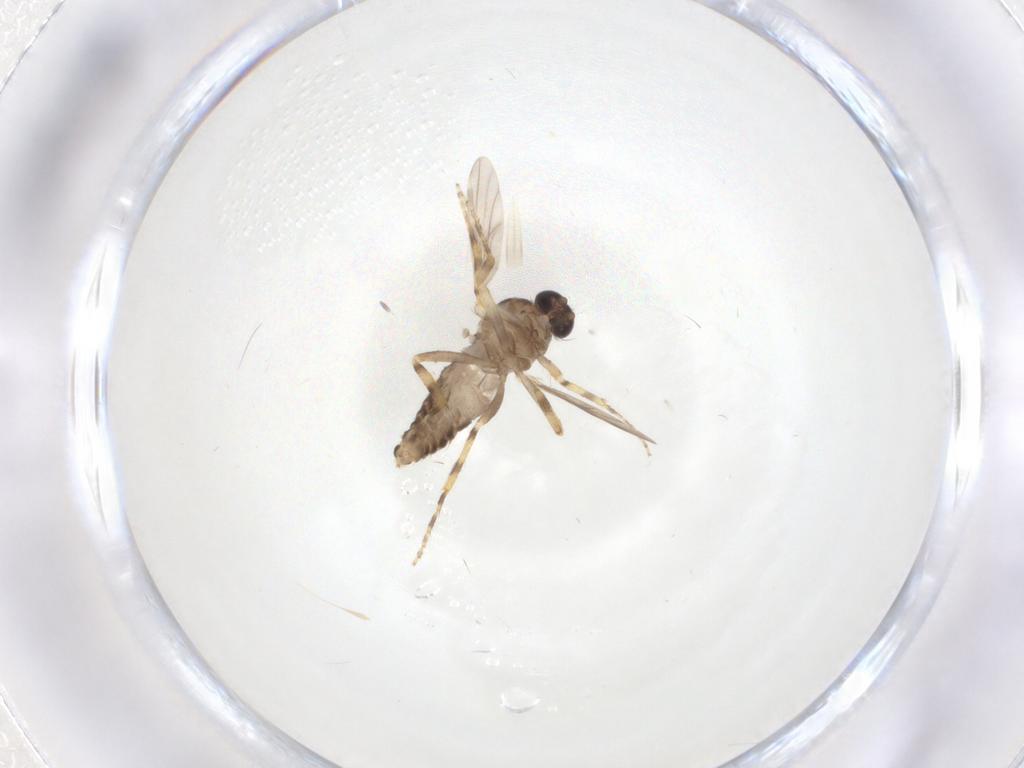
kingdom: Animalia
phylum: Arthropoda
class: Insecta
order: Diptera
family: Ceratopogonidae
